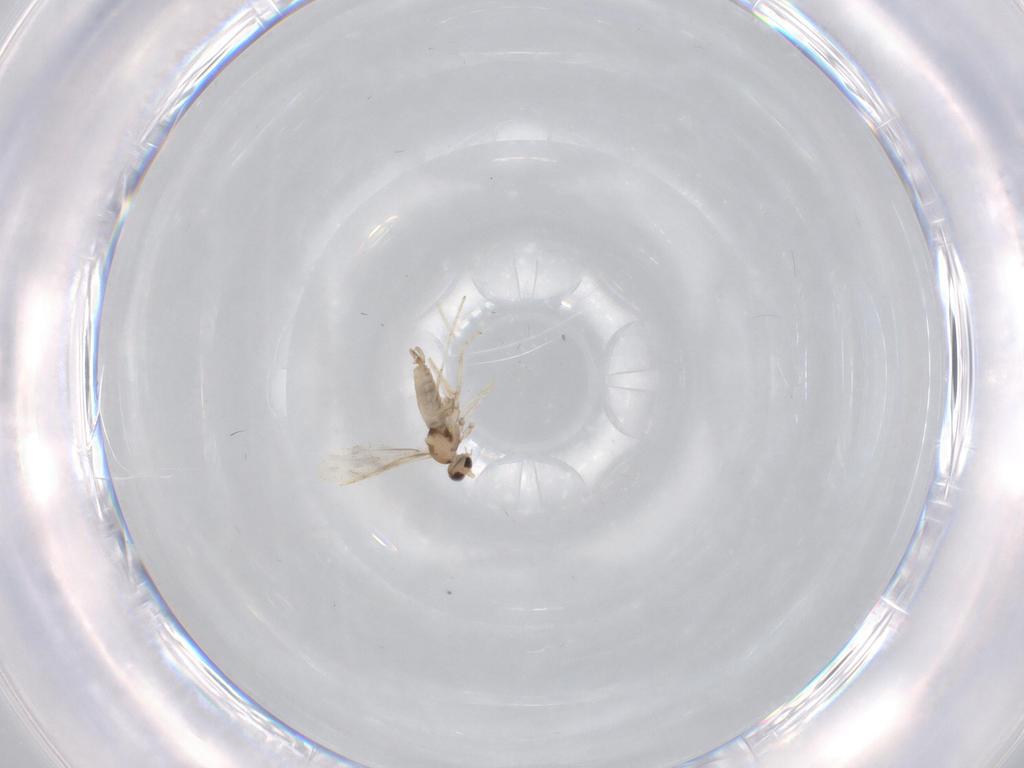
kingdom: Animalia
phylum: Arthropoda
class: Insecta
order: Diptera
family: Cecidomyiidae
